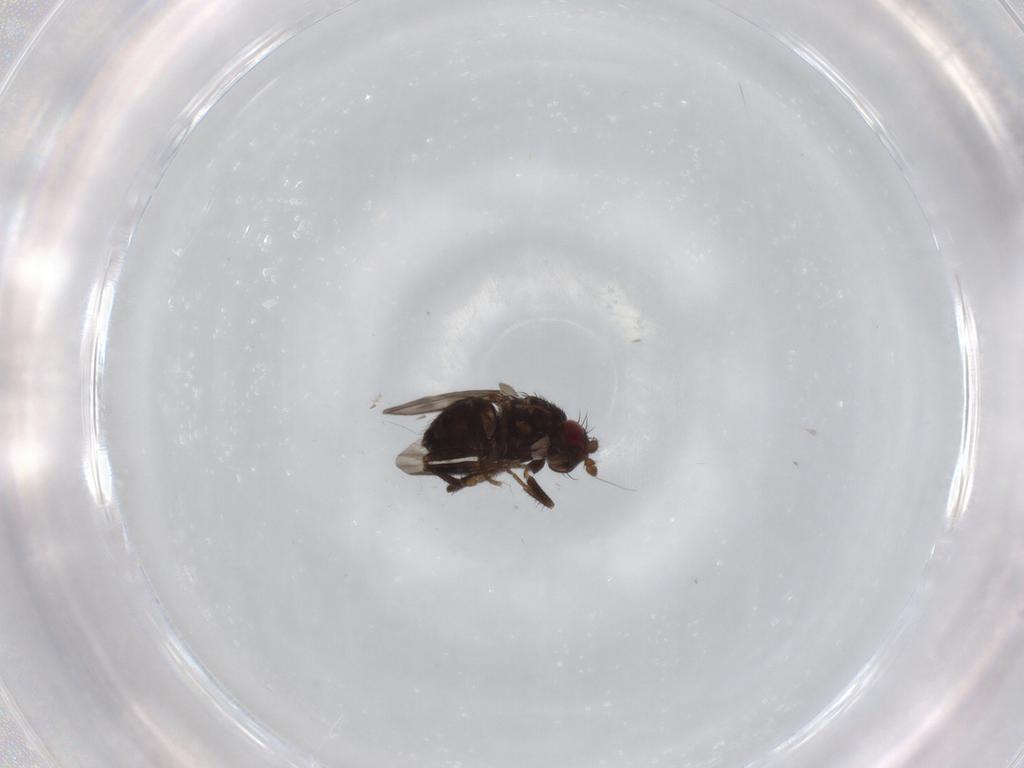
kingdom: Animalia
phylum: Arthropoda
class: Insecta
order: Diptera
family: Sphaeroceridae
